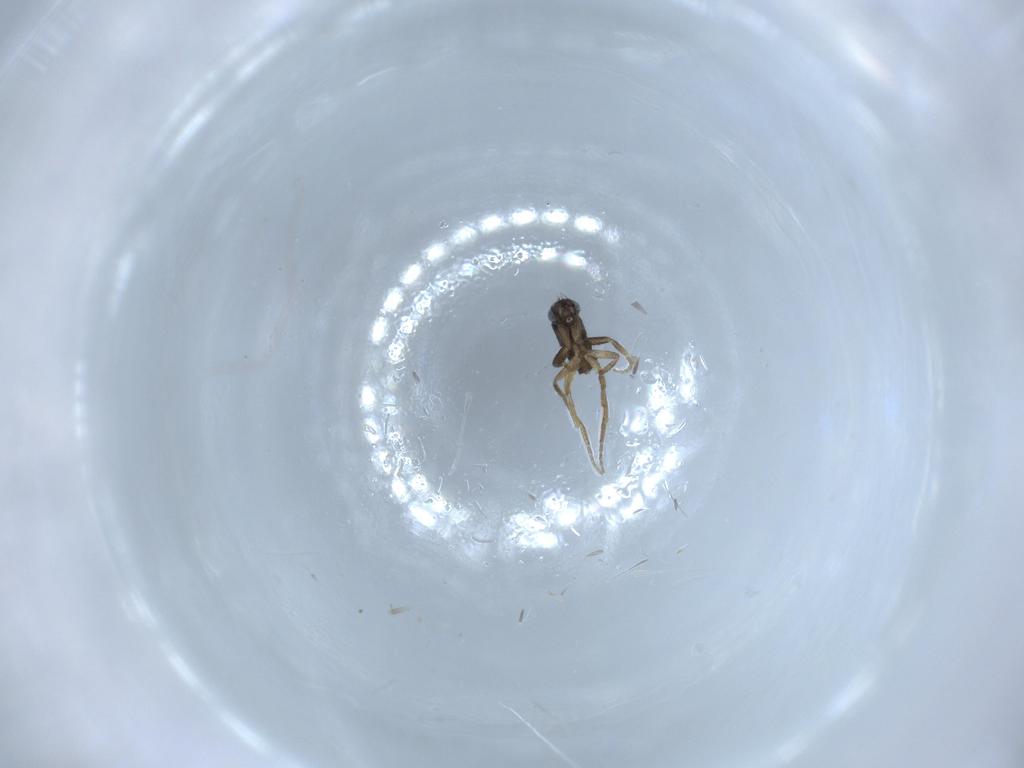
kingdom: Animalia
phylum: Arthropoda
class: Insecta
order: Diptera
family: Phoridae
